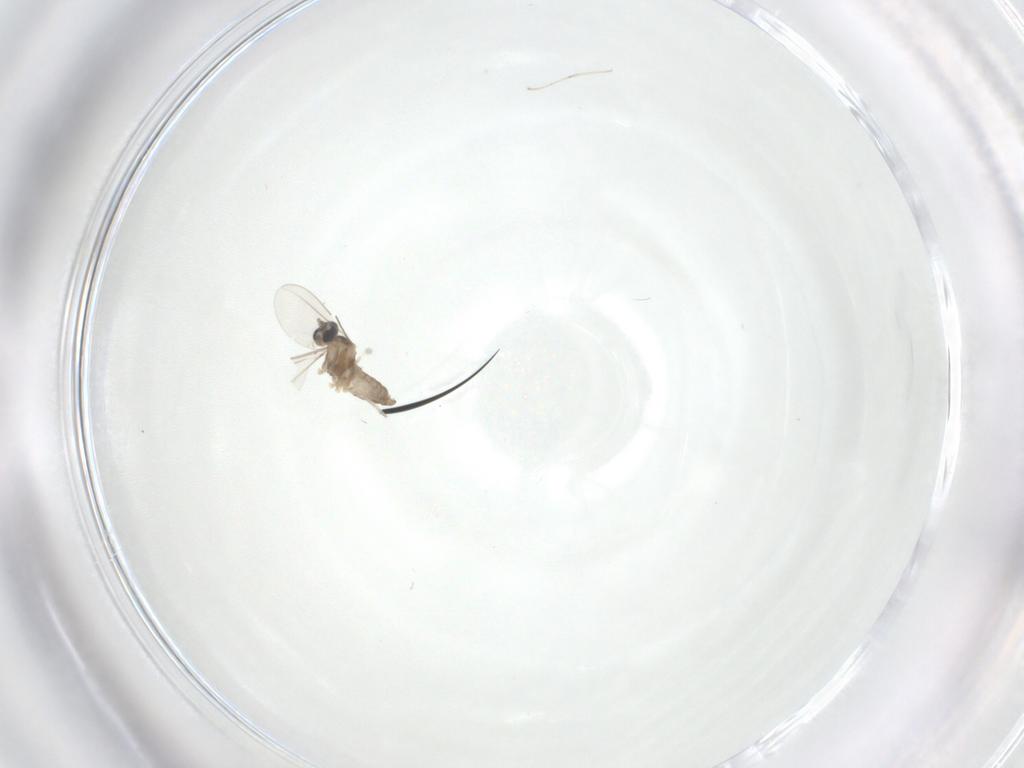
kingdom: Animalia
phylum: Arthropoda
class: Insecta
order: Diptera
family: Cecidomyiidae
